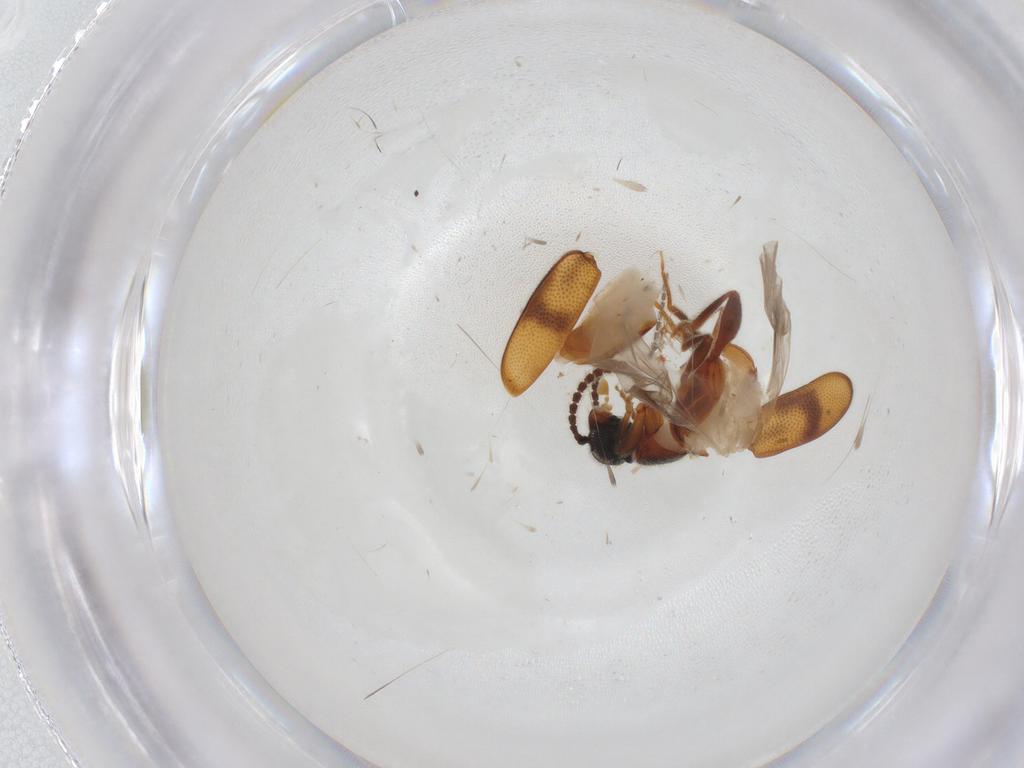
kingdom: Animalia
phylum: Arthropoda
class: Insecta
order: Coleoptera
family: Aderidae
